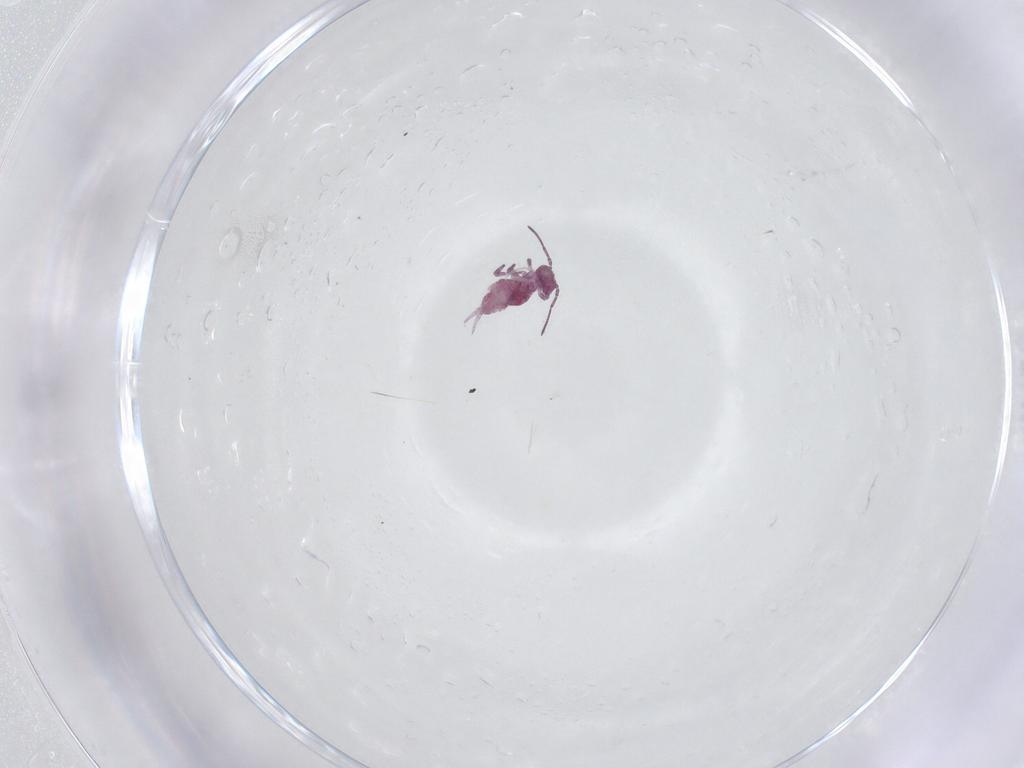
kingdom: Animalia
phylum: Arthropoda
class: Collembola
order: Symphypleona
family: Sminthuridae
